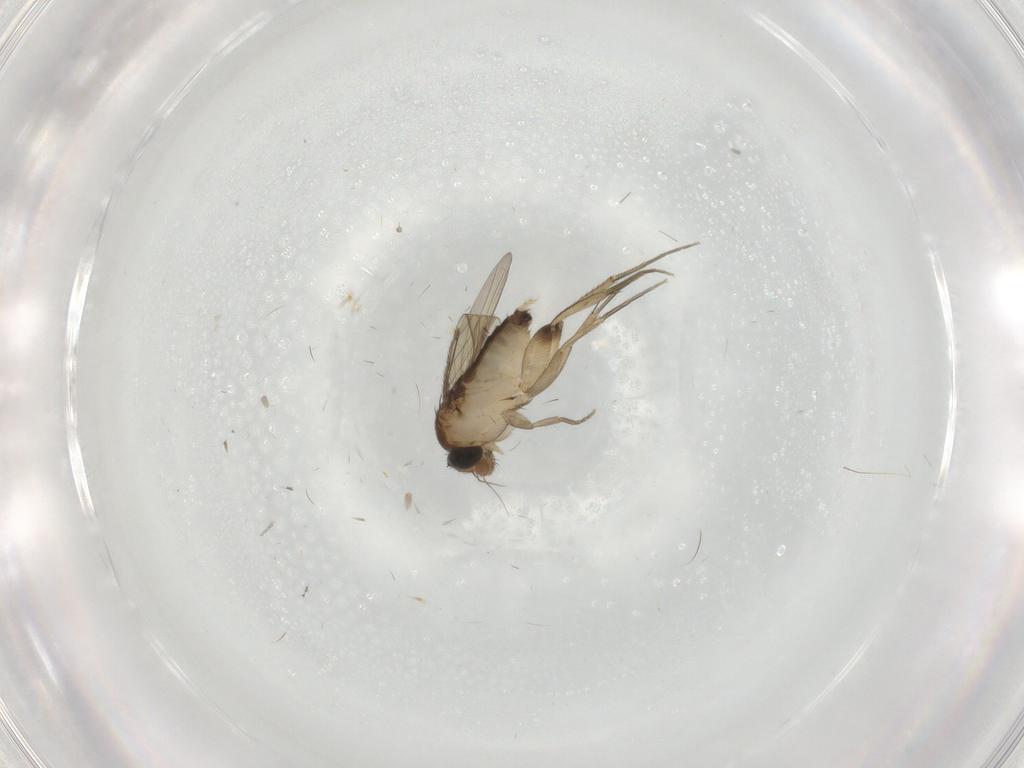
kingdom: Animalia
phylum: Arthropoda
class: Insecta
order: Diptera
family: Phoridae
